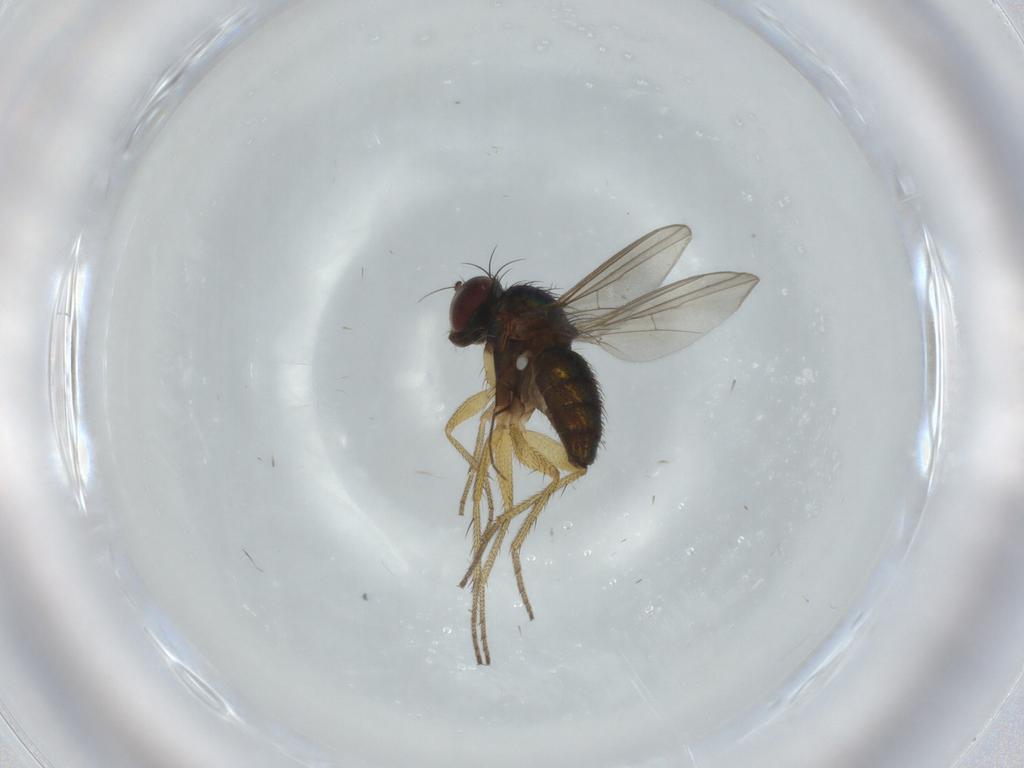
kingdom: Animalia
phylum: Arthropoda
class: Insecta
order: Diptera
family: Dolichopodidae
